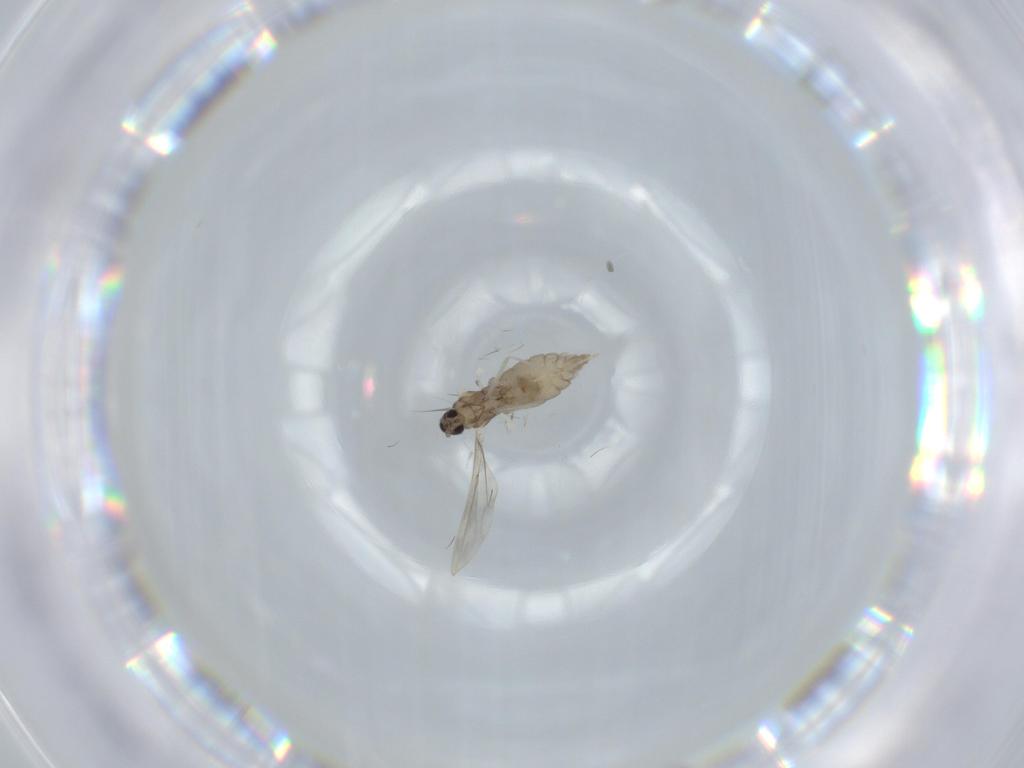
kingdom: Animalia
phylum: Arthropoda
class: Insecta
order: Diptera
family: Cecidomyiidae
